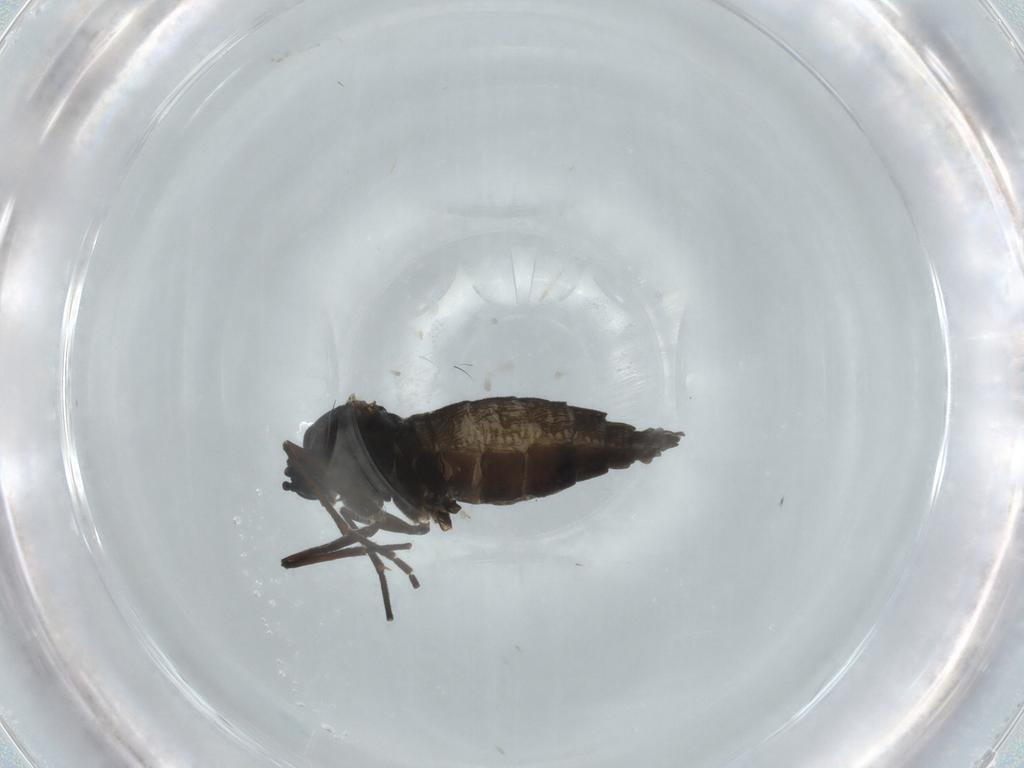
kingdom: Animalia
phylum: Arthropoda
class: Insecta
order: Diptera
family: Sciaridae
